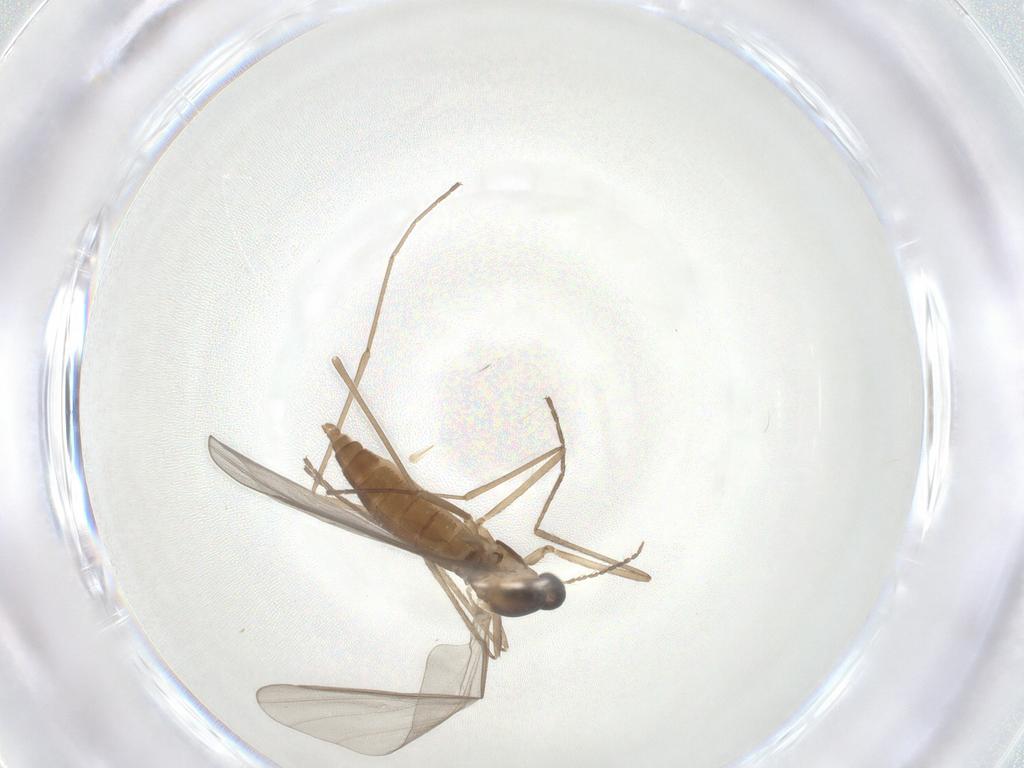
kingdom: Animalia
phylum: Arthropoda
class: Insecta
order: Diptera
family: Cecidomyiidae
